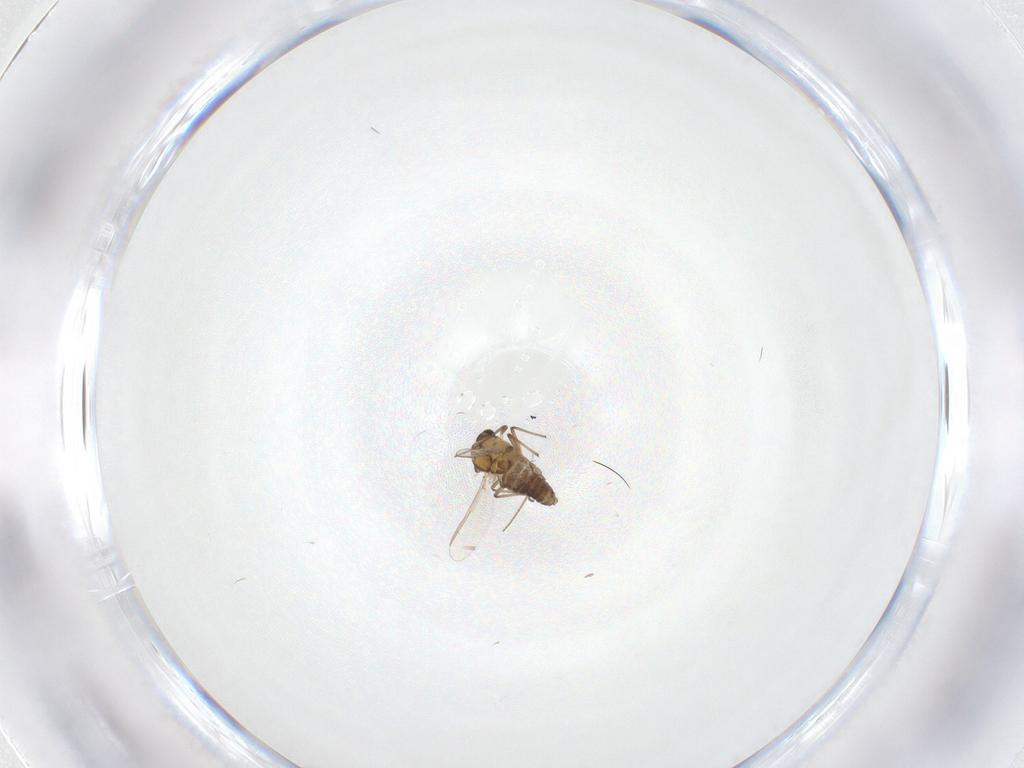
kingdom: Animalia
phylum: Arthropoda
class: Insecta
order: Diptera
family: Chironomidae
